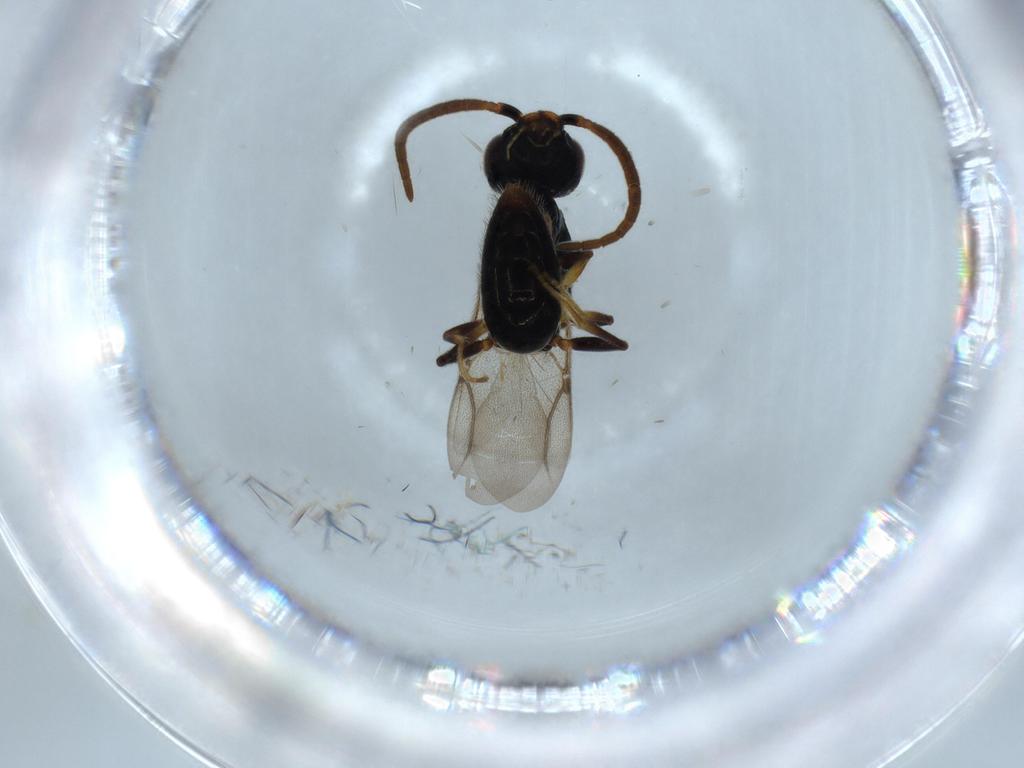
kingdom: Animalia
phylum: Arthropoda
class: Insecta
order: Hymenoptera
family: Bethylidae
